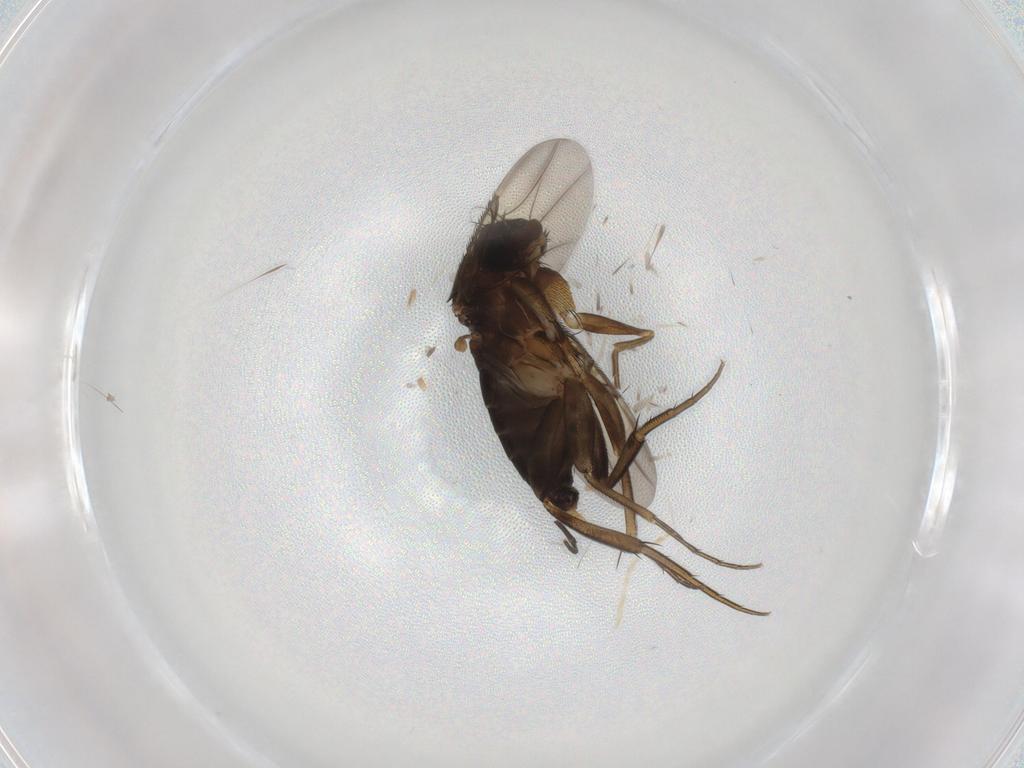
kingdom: Animalia
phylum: Arthropoda
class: Insecta
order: Diptera
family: Phoridae
